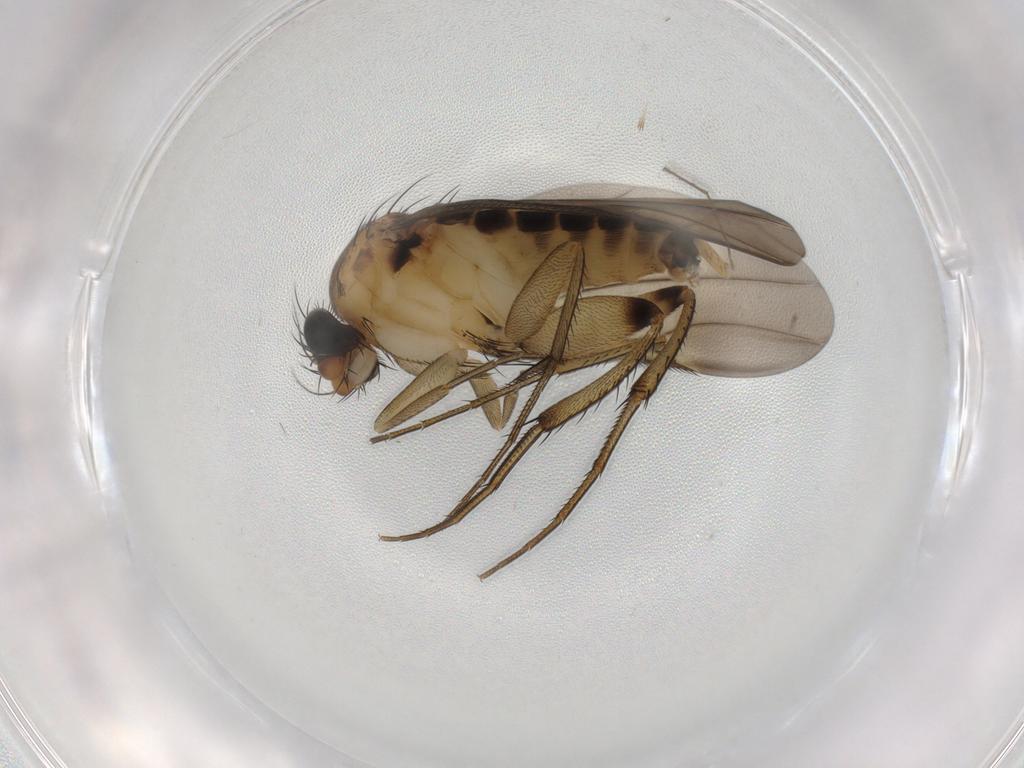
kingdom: Animalia
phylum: Arthropoda
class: Insecta
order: Diptera
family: Phoridae
